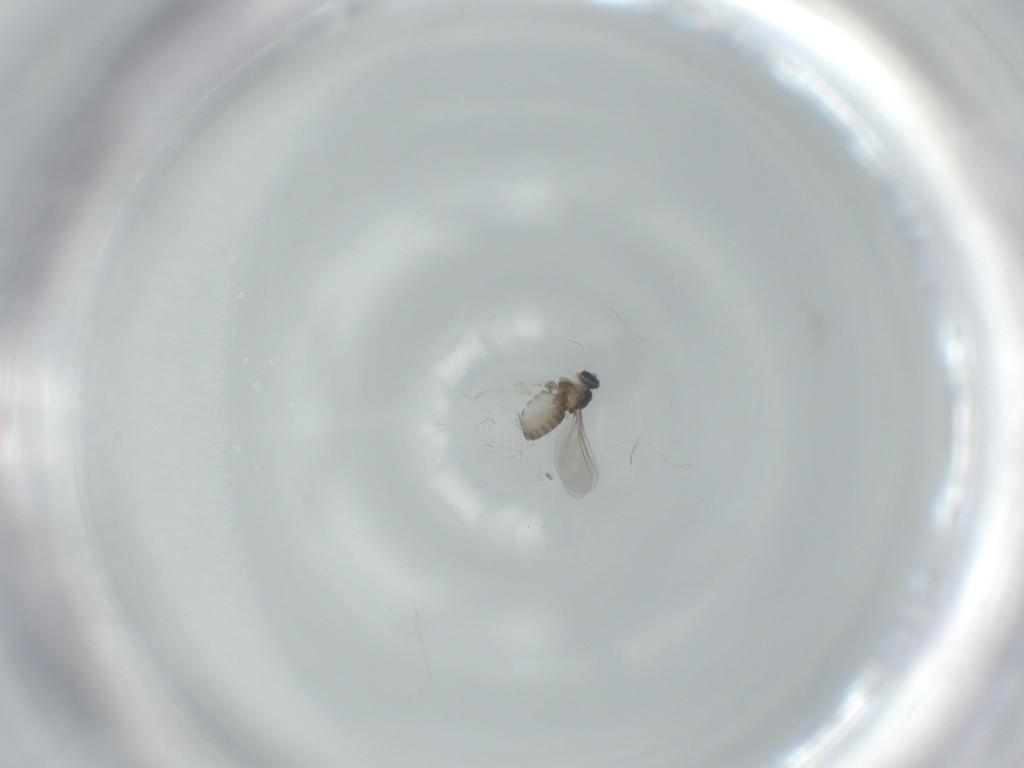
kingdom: Animalia
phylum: Arthropoda
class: Insecta
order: Diptera
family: Cecidomyiidae
